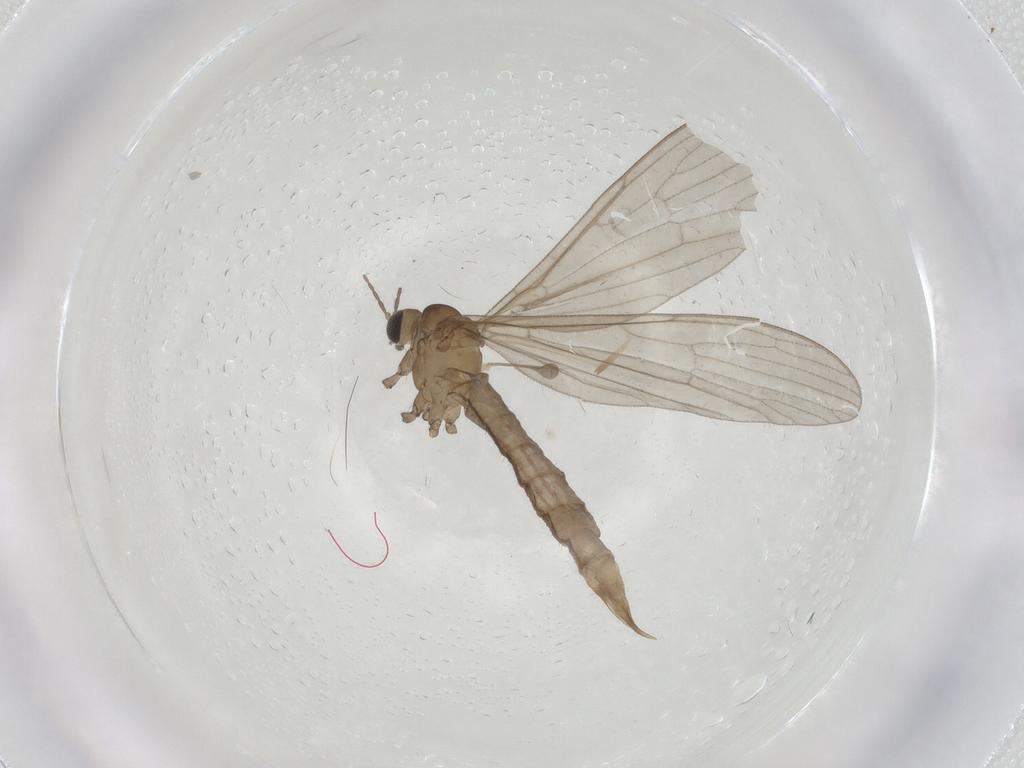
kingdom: Animalia
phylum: Arthropoda
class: Insecta
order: Diptera
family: Limoniidae
